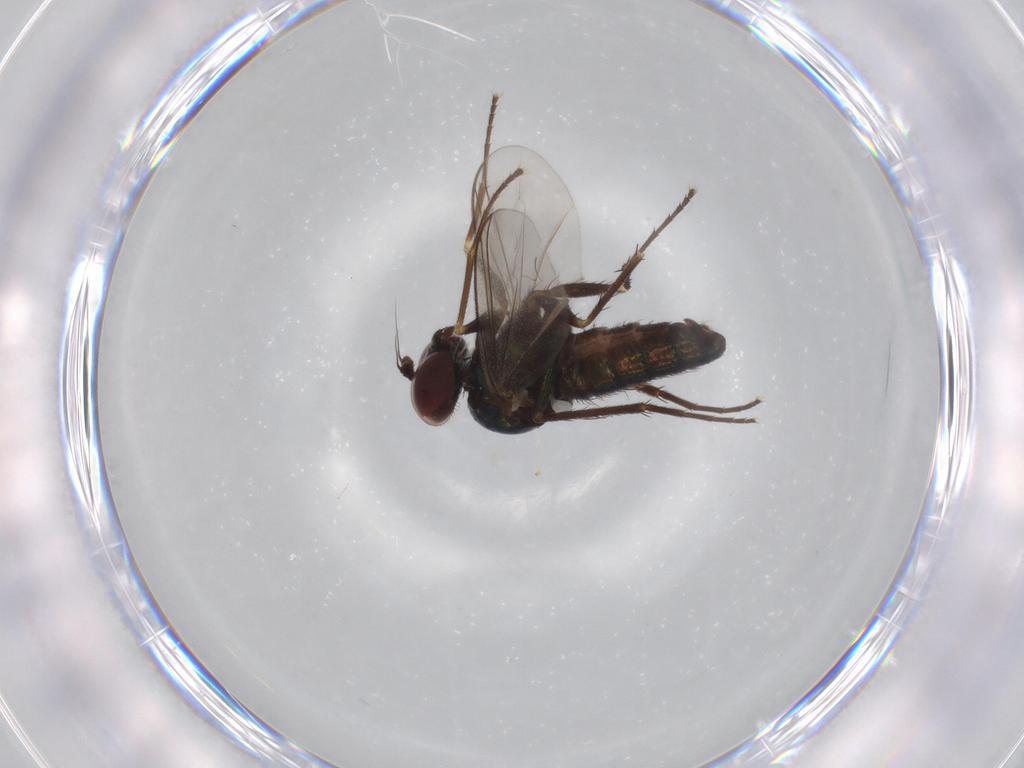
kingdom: Animalia
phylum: Arthropoda
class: Insecta
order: Diptera
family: Dolichopodidae
